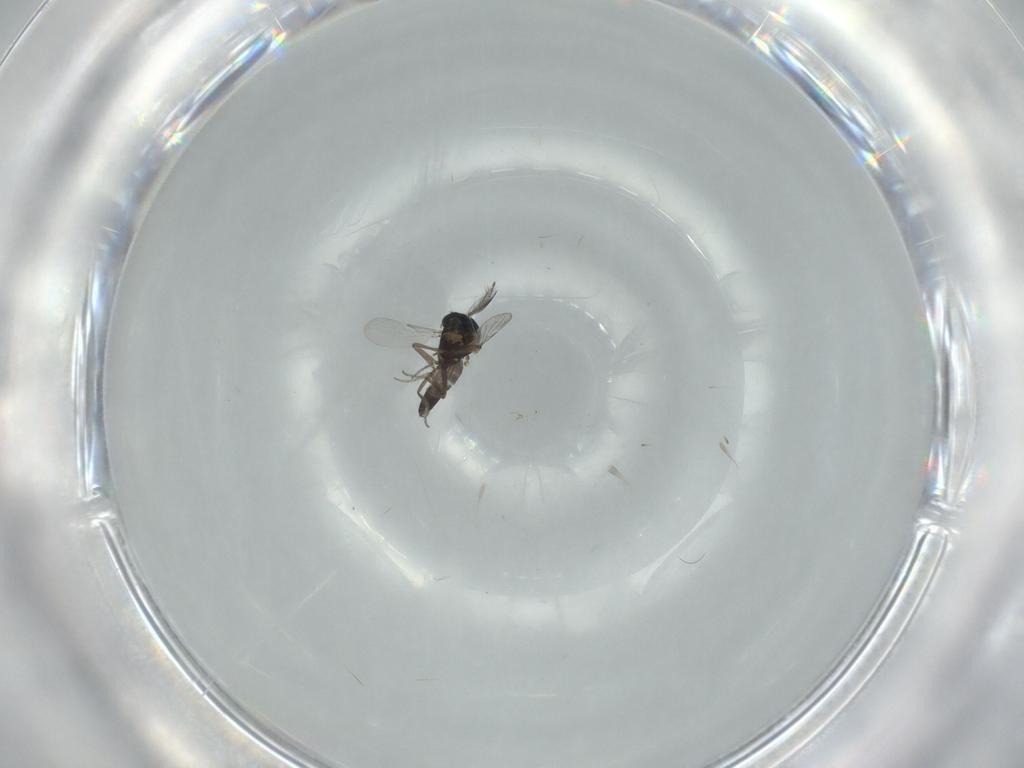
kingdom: Animalia
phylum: Arthropoda
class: Insecta
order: Diptera
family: Ceratopogonidae
